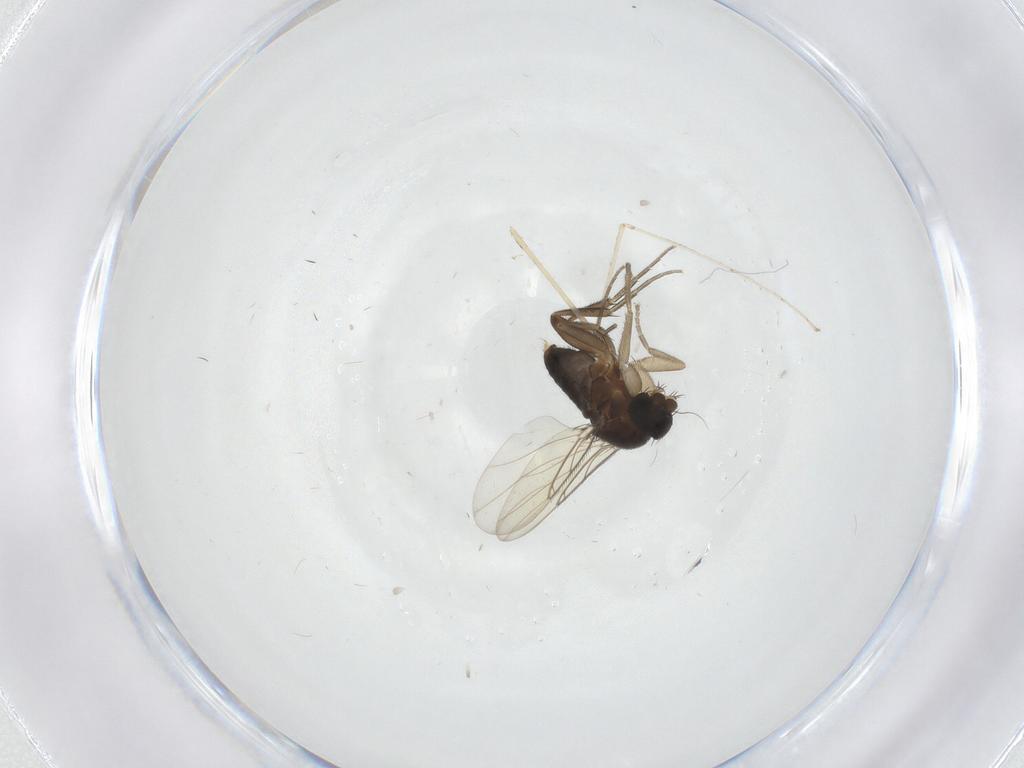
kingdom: Animalia
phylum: Arthropoda
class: Insecta
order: Diptera
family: Phoridae
